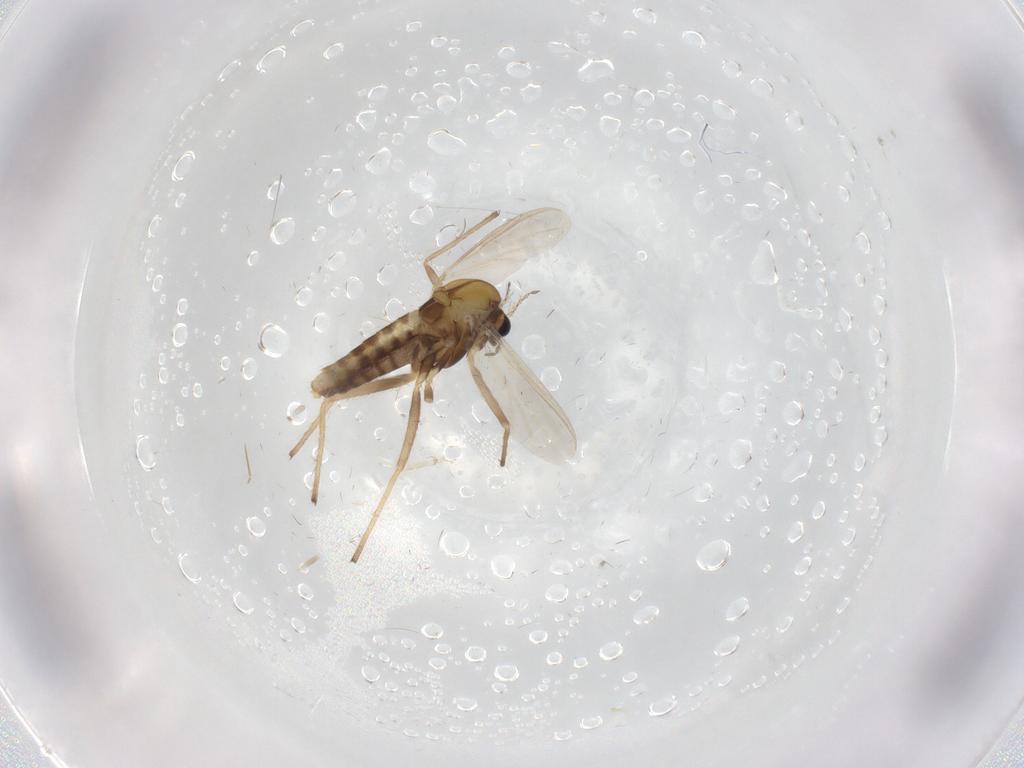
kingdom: Animalia
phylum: Arthropoda
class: Insecta
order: Diptera
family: Chironomidae
